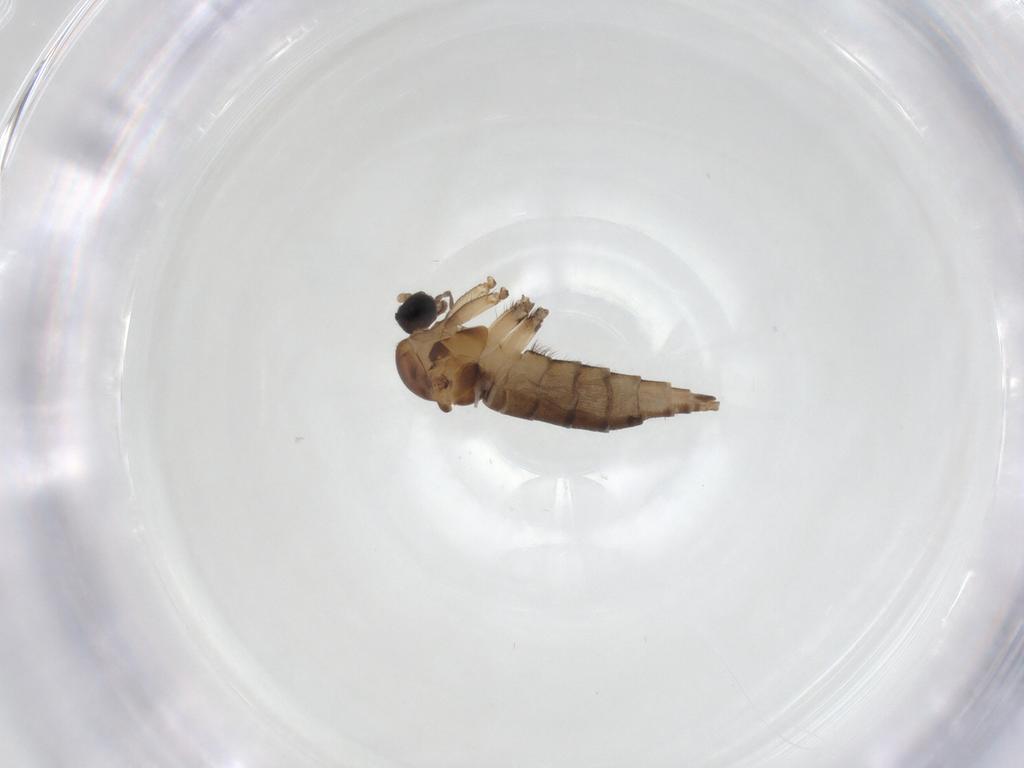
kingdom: Animalia
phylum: Arthropoda
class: Insecta
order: Diptera
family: Sciaridae
